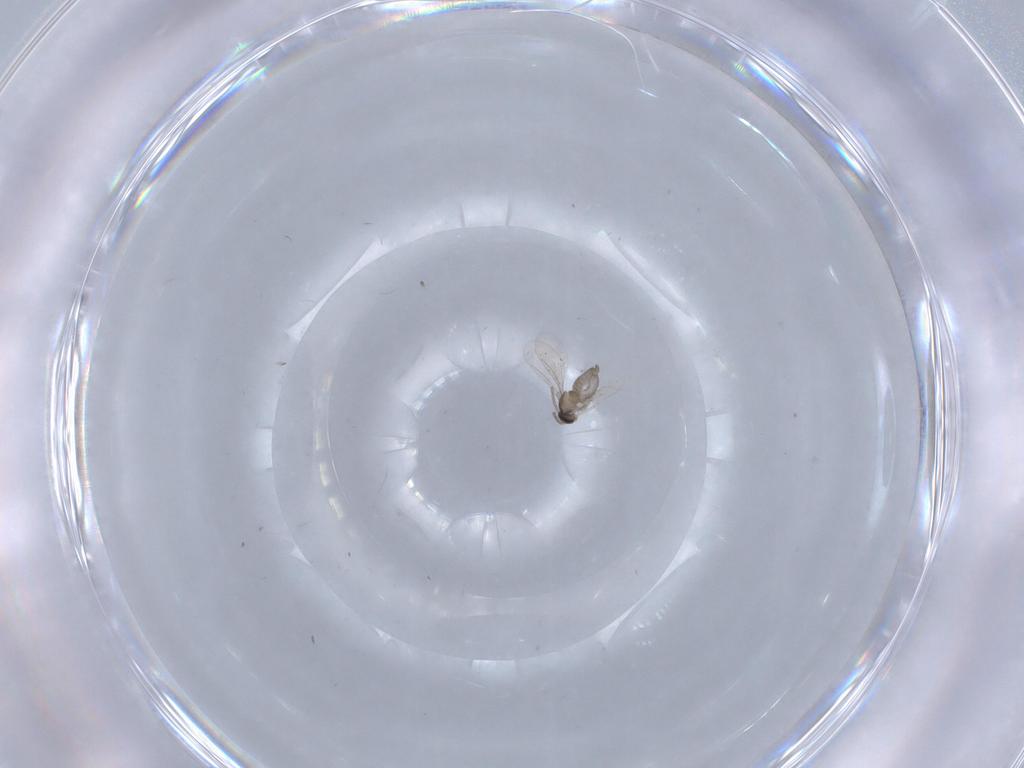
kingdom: Animalia
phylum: Arthropoda
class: Insecta
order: Diptera
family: Cecidomyiidae
